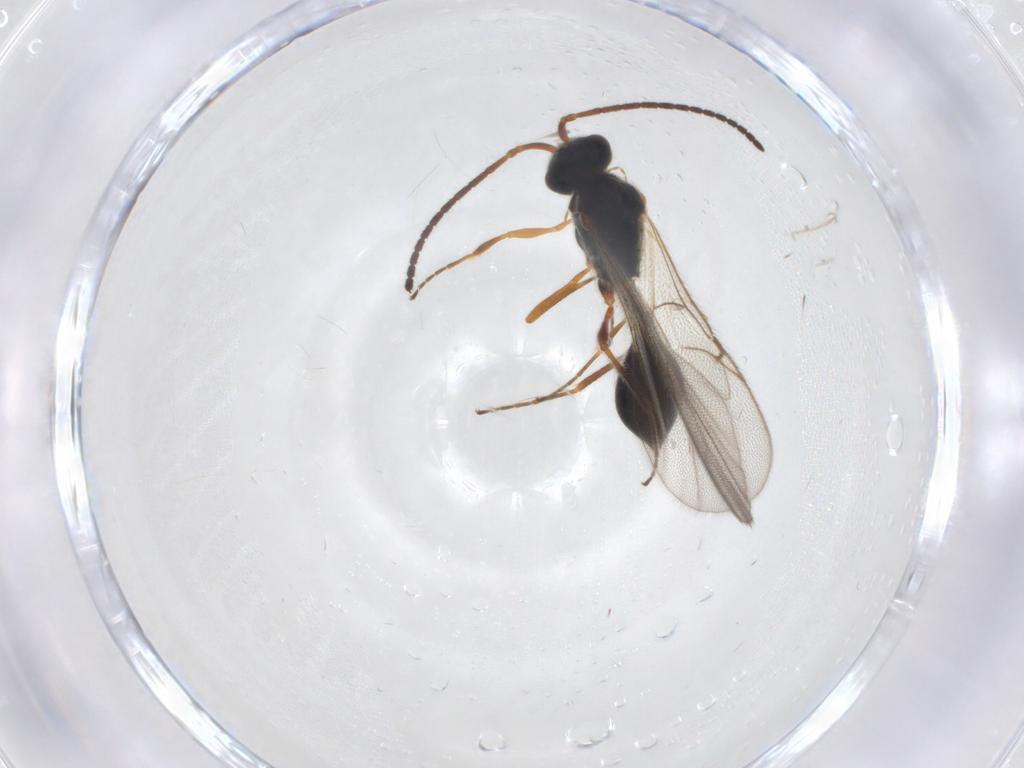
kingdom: Animalia
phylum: Arthropoda
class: Insecta
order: Hymenoptera
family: Diapriidae
